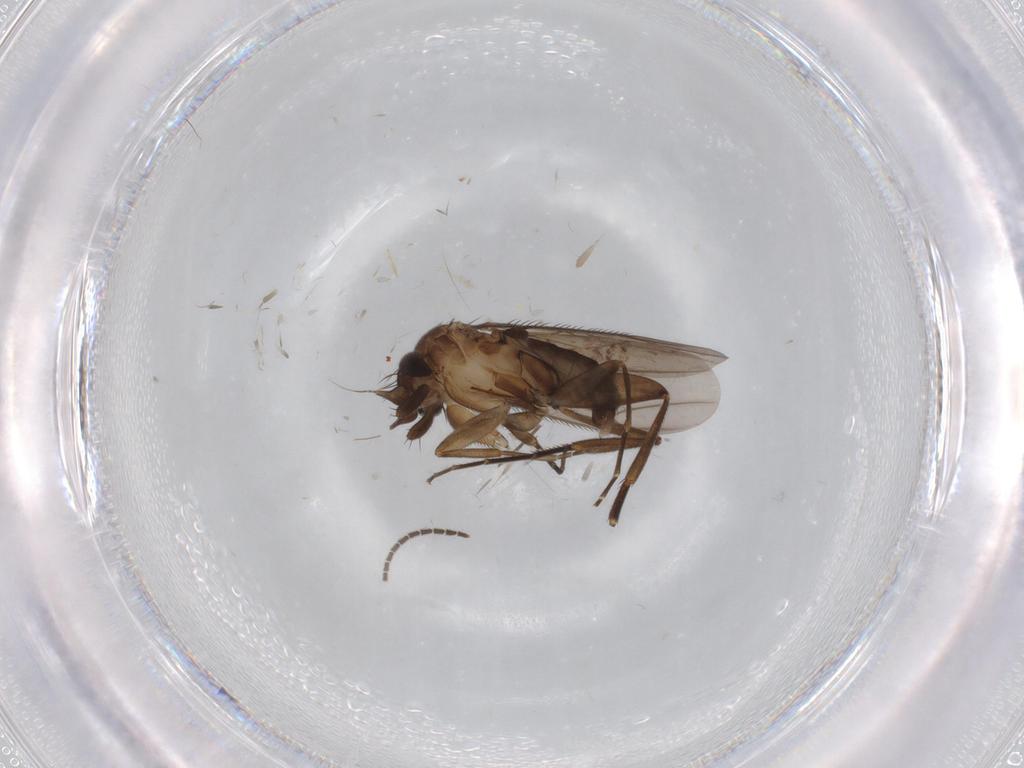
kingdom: Animalia
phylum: Arthropoda
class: Insecta
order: Diptera
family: Phoridae
